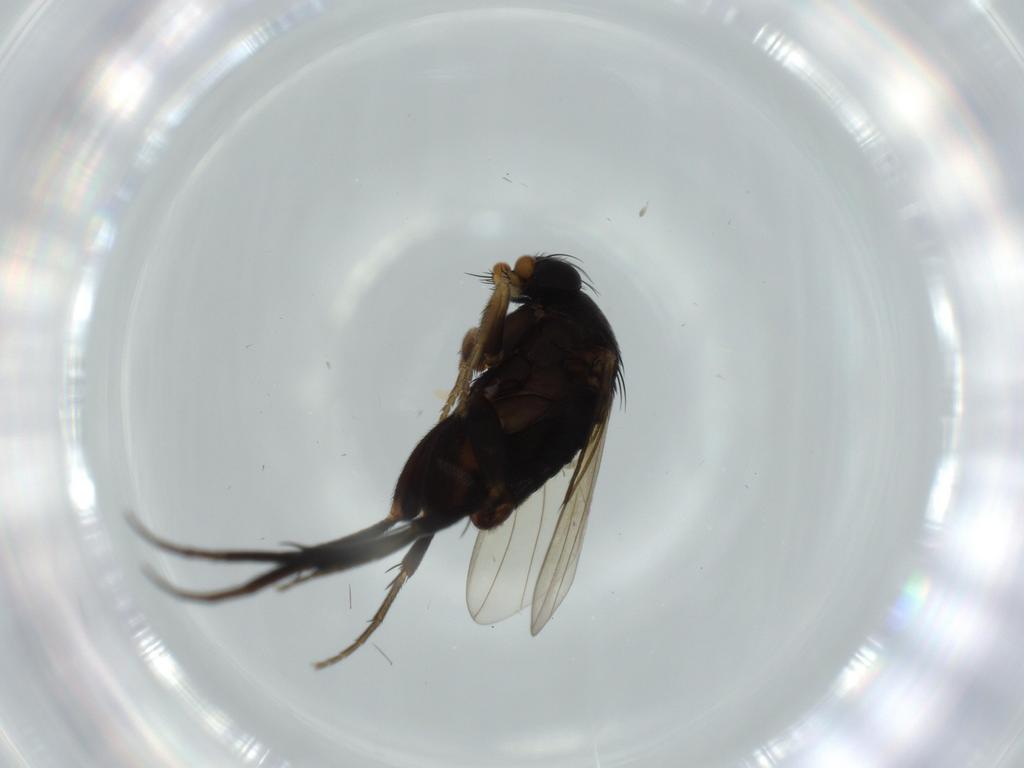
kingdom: Animalia
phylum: Arthropoda
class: Insecta
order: Diptera
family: Phoridae
